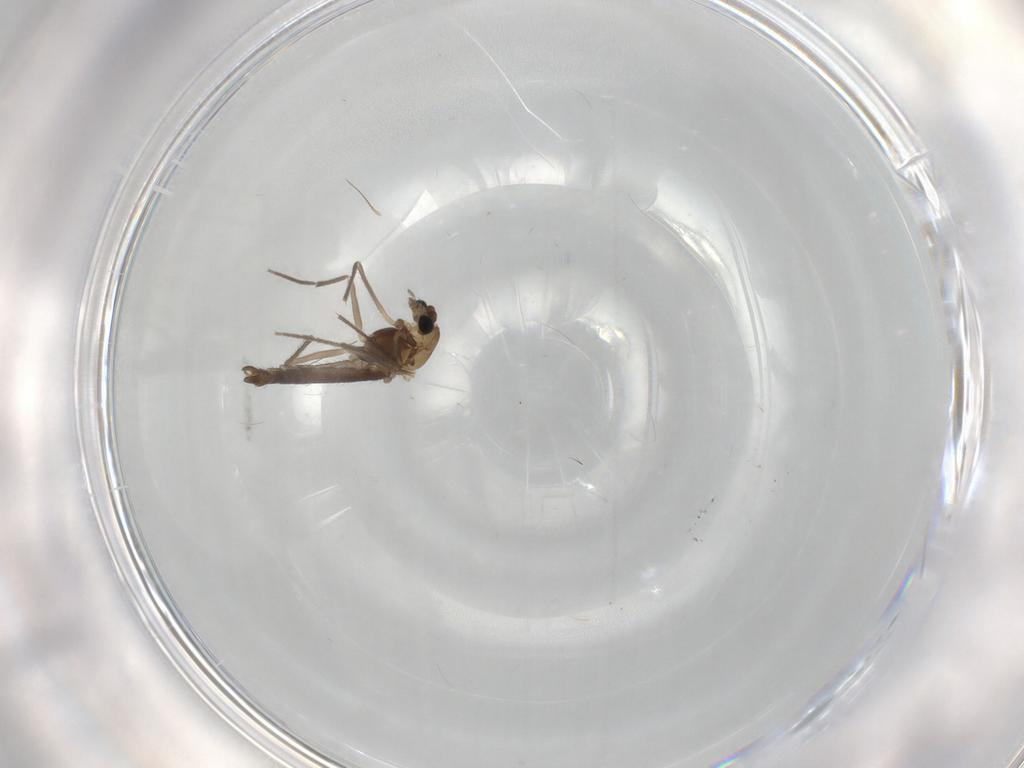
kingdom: Animalia
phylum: Arthropoda
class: Insecta
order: Diptera
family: Chironomidae
